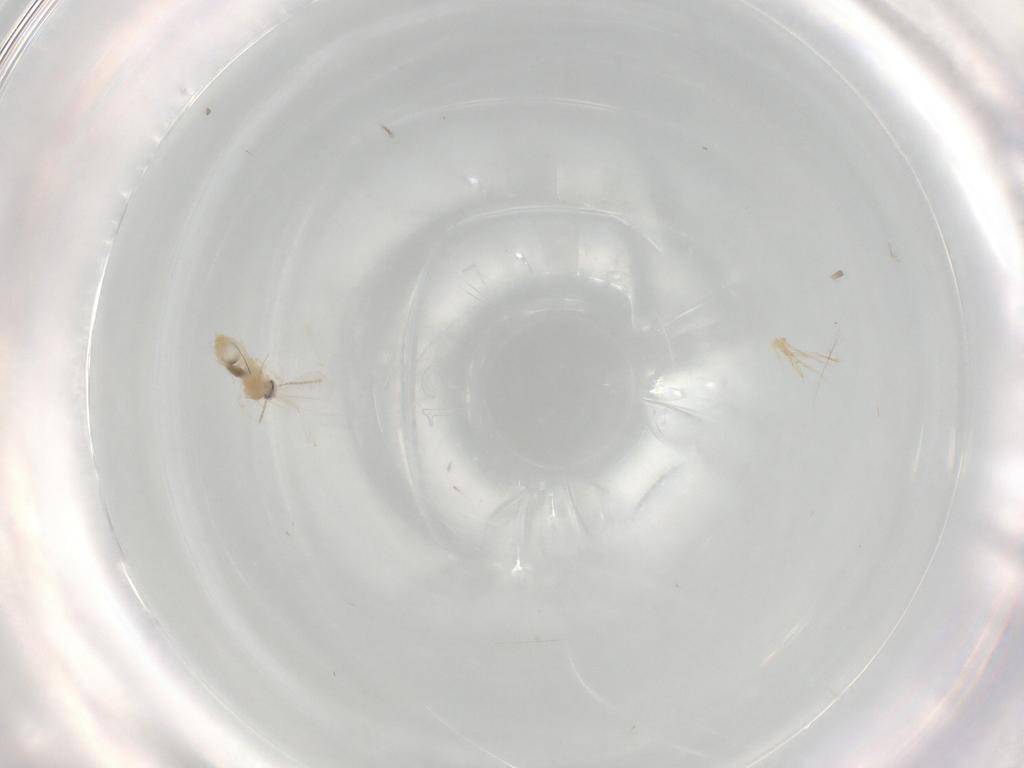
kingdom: Animalia
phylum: Arthropoda
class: Insecta
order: Diptera
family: Cecidomyiidae
